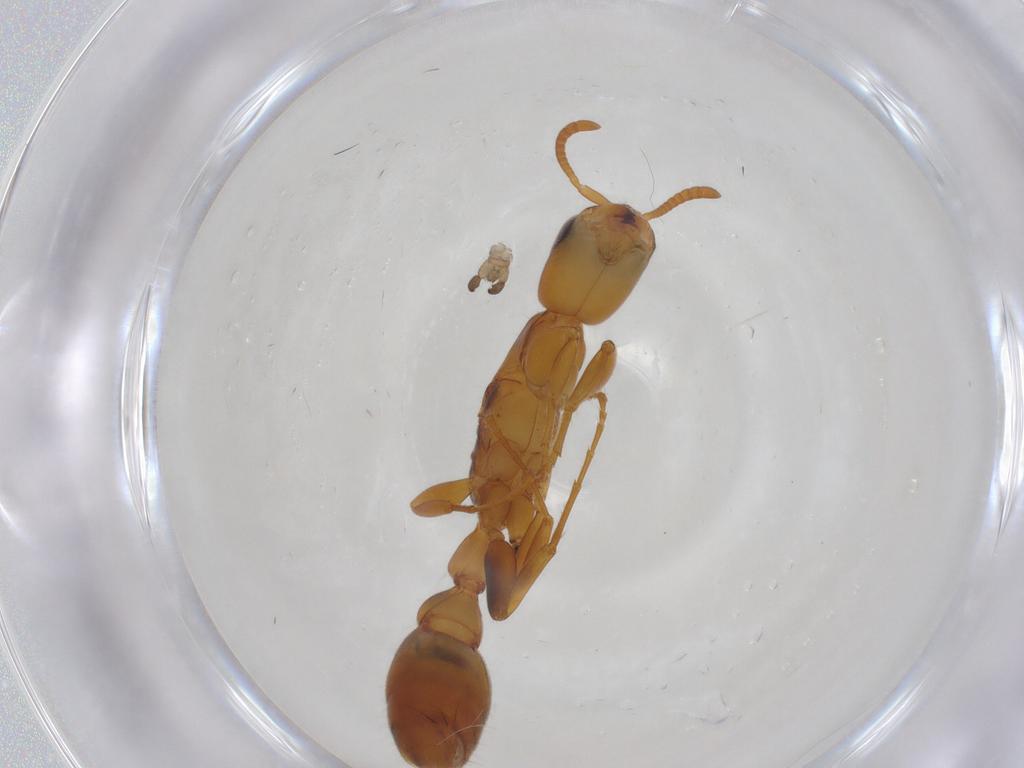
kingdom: Animalia
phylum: Arthropoda
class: Insecta
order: Hymenoptera
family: Formicidae
